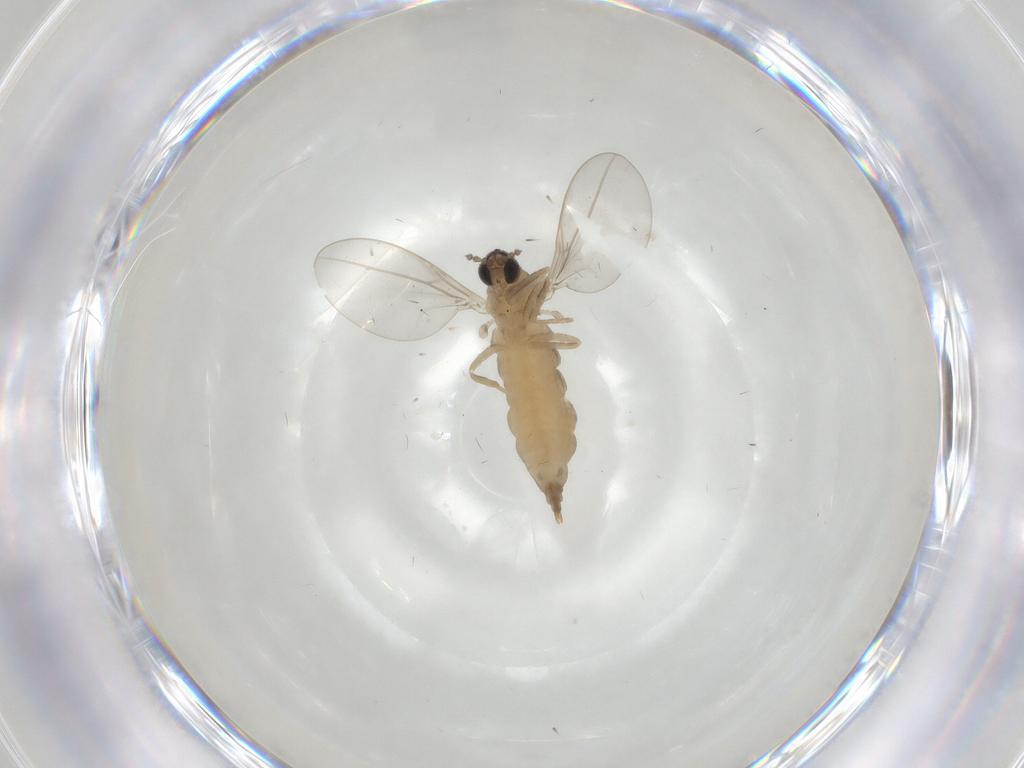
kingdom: Animalia
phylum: Arthropoda
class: Insecta
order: Diptera
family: Cecidomyiidae
